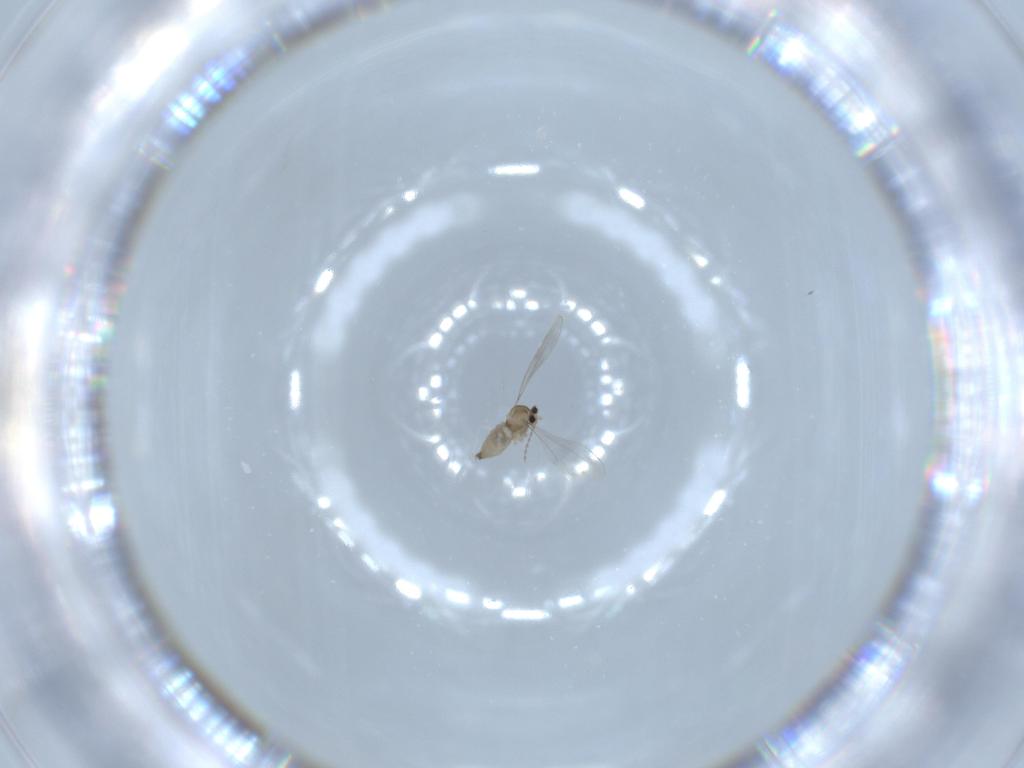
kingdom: Animalia
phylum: Arthropoda
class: Insecta
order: Diptera
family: Cecidomyiidae
